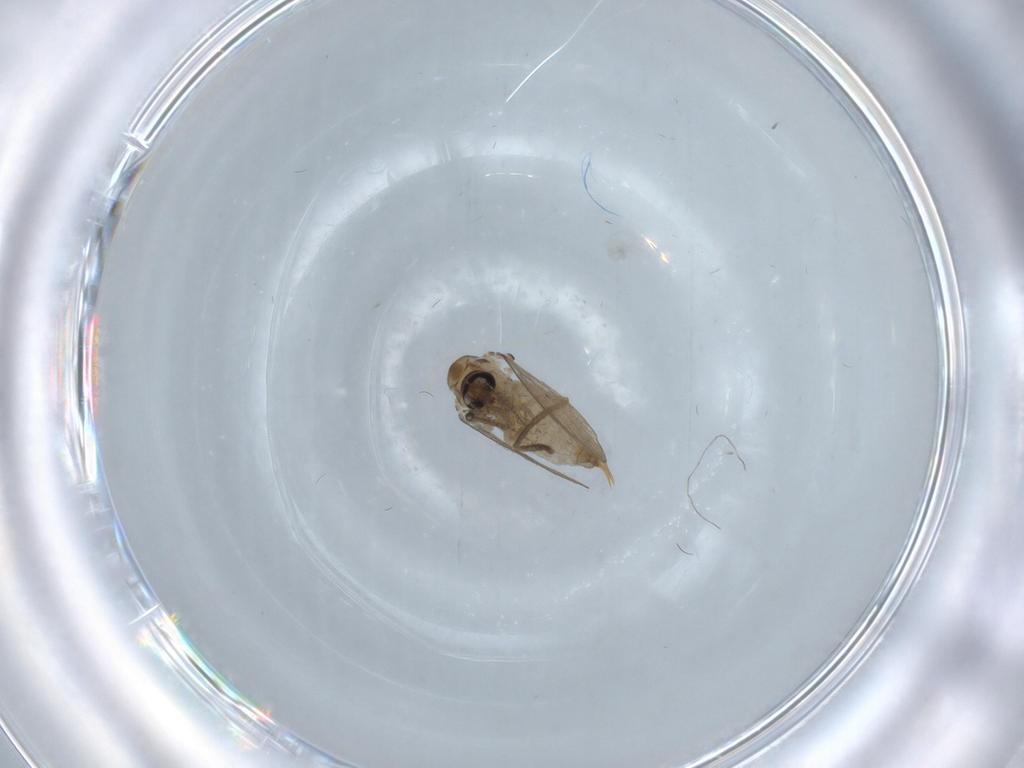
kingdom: Animalia
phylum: Arthropoda
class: Insecta
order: Diptera
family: Psychodidae
